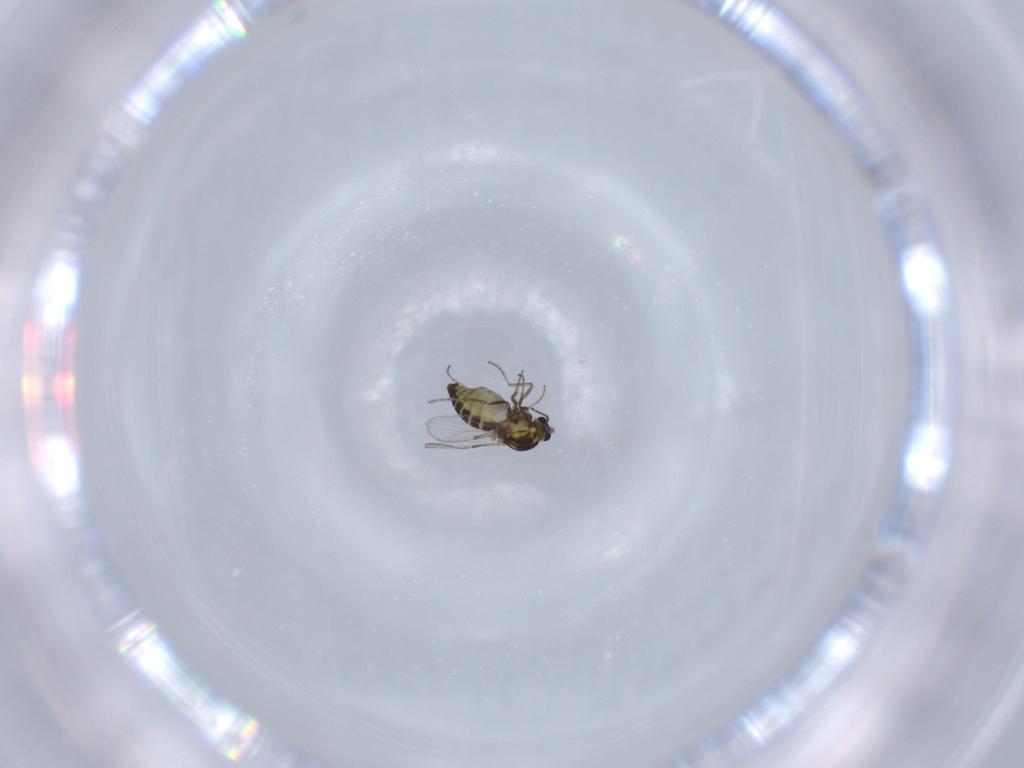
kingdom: Animalia
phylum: Arthropoda
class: Insecta
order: Diptera
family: Ceratopogonidae
